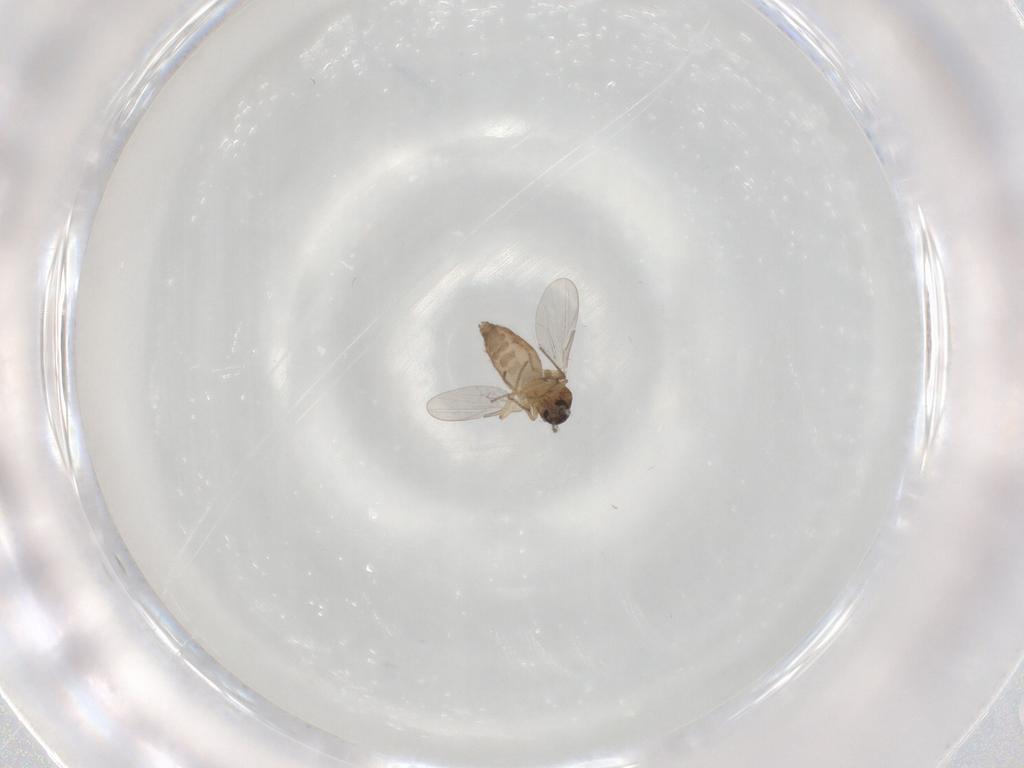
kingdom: Animalia
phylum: Arthropoda
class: Insecta
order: Diptera
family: Chironomidae
